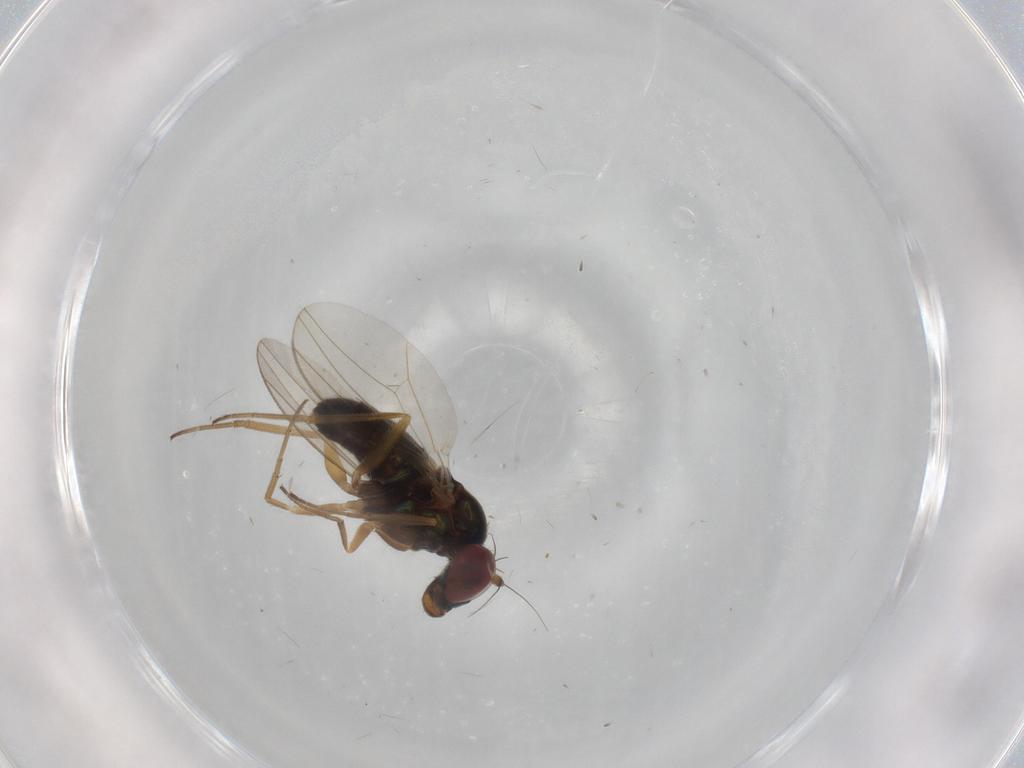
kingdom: Animalia
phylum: Arthropoda
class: Insecta
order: Diptera
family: Dolichopodidae
